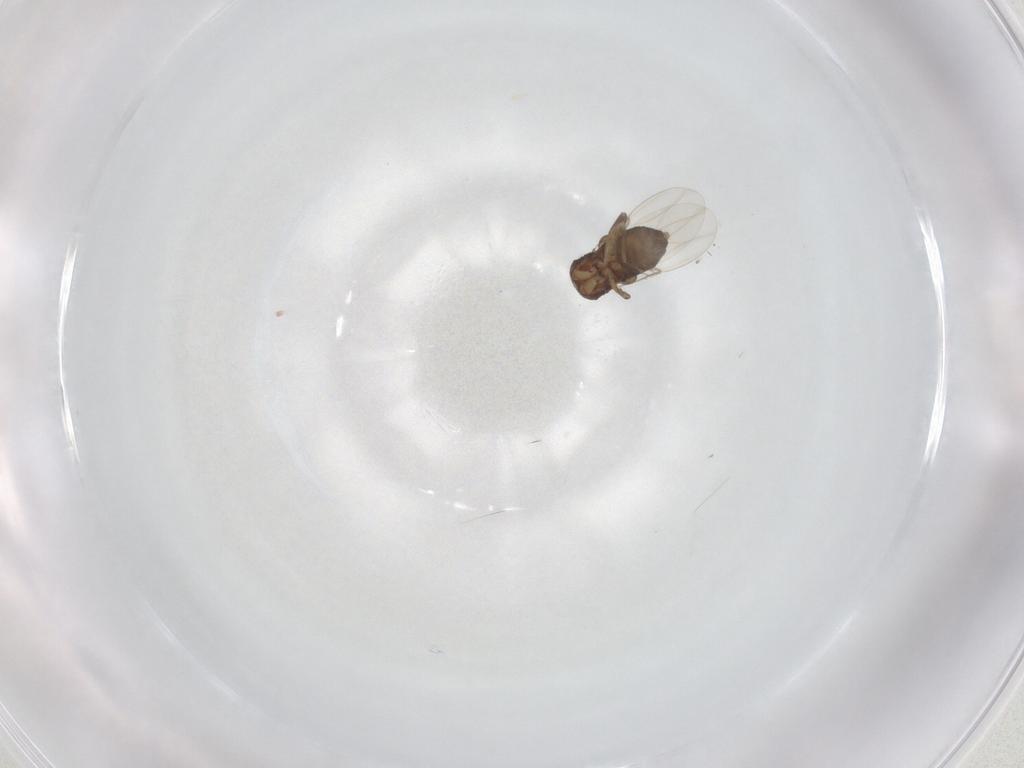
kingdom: Animalia
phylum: Arthropoda
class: Insecta
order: Diptera
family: Phoridae
